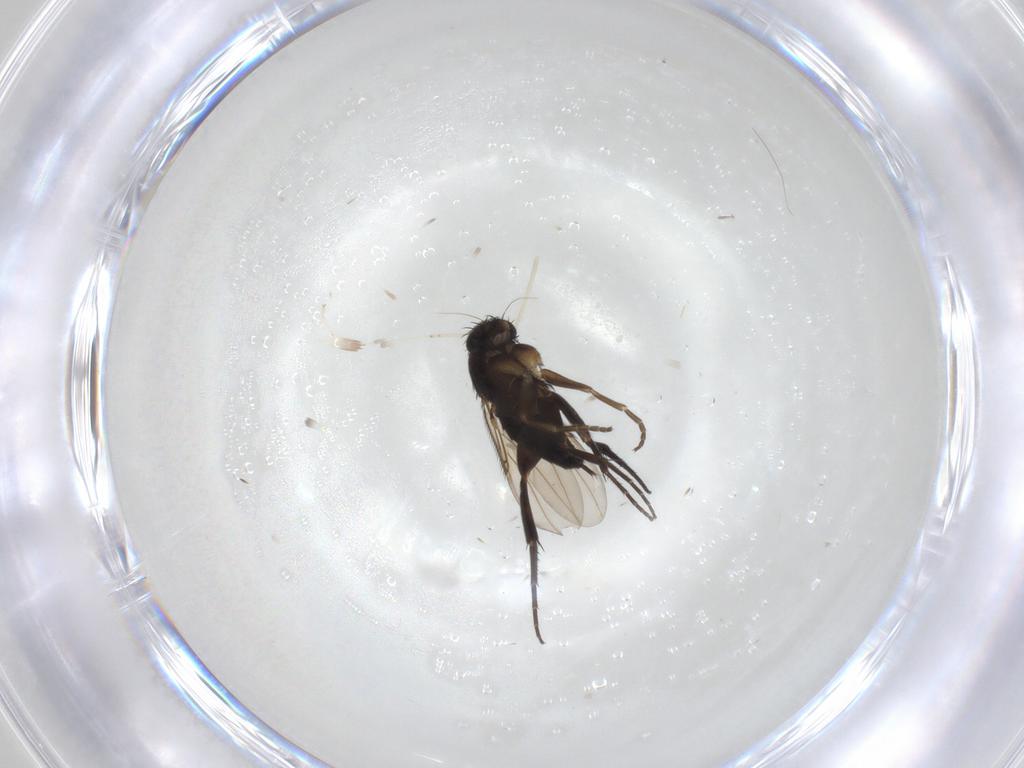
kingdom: Animalia
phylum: Arthropoda
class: Insecta
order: Diptera
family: Phoridae
